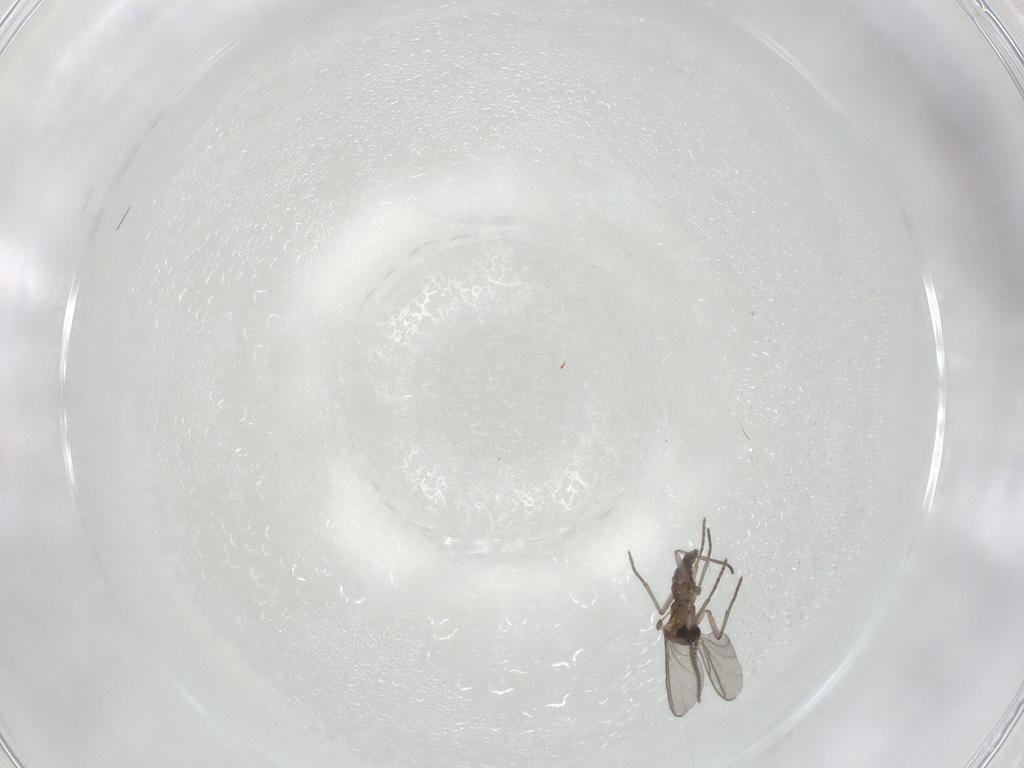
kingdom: Animalia
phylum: Arthropoda
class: Insecta
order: Diptera
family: Sciaridae
